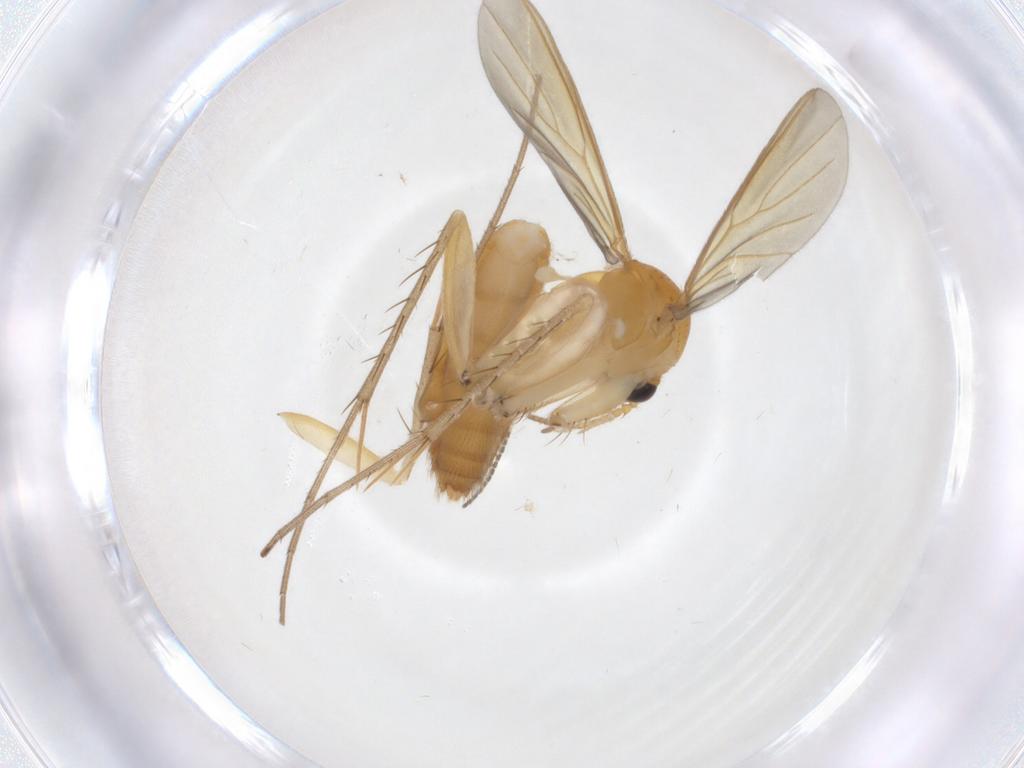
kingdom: Animalia
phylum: Arthropoda
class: Insecta
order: Diptera
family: Mycetophilidae
